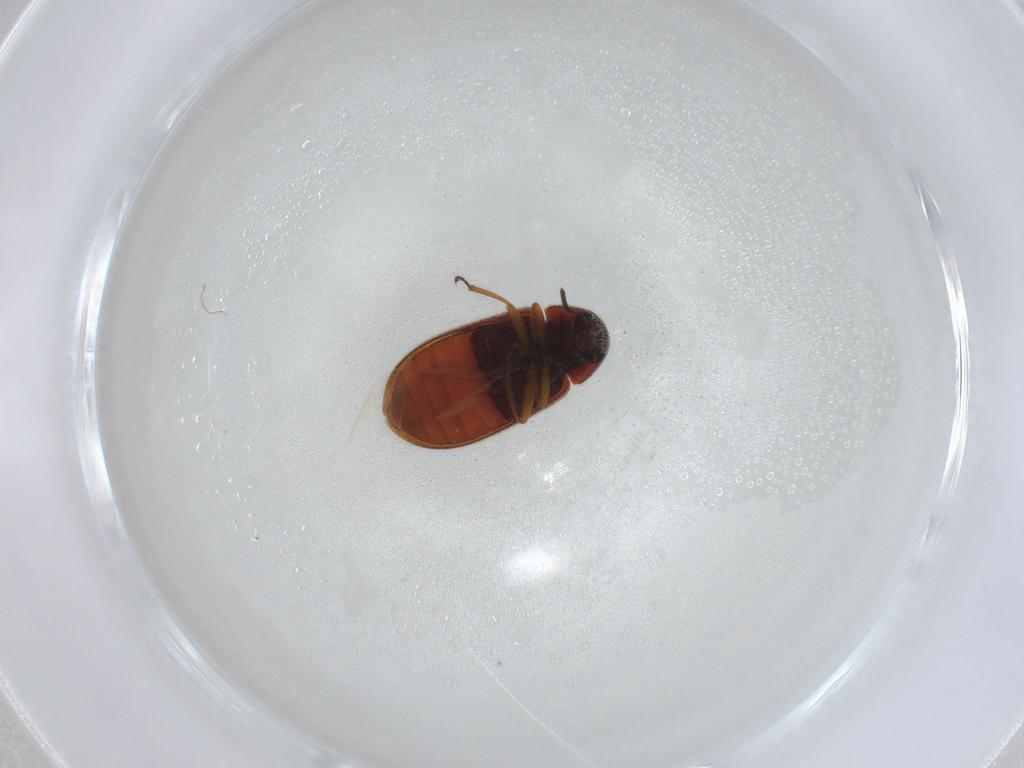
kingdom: Animalia
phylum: Arthropoda
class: Insecta
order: Coleoptera
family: Rhadalidae
